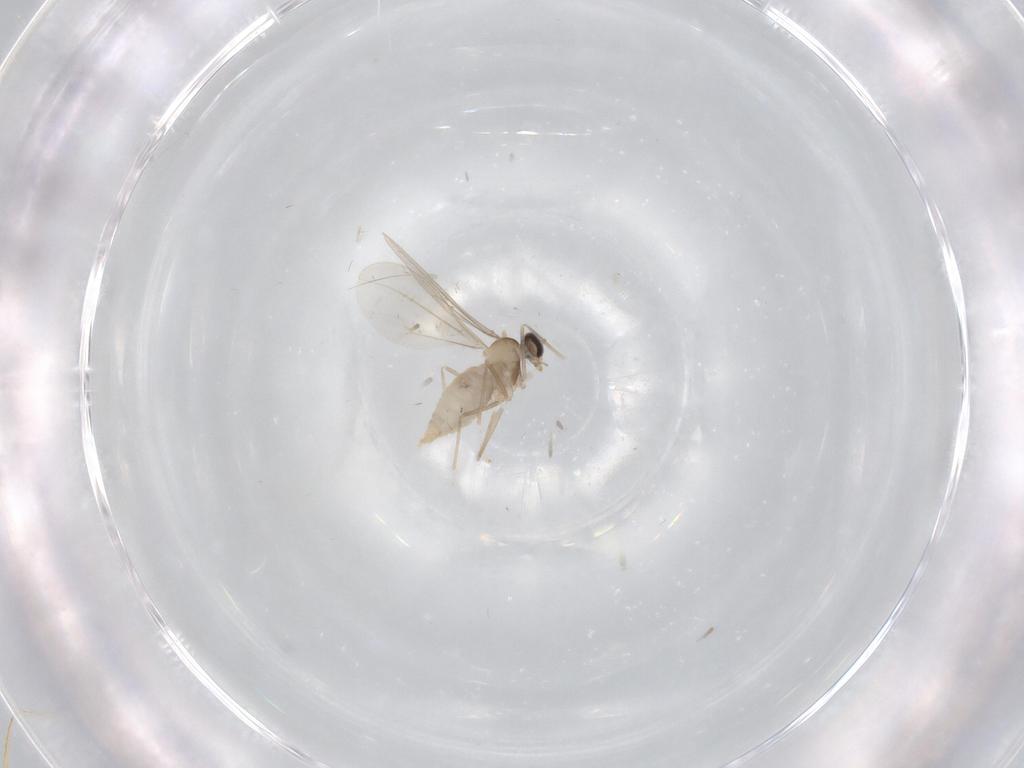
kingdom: Animalia
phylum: Arthropoda
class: Insecta
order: Diptera
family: Cecidomyiidae
